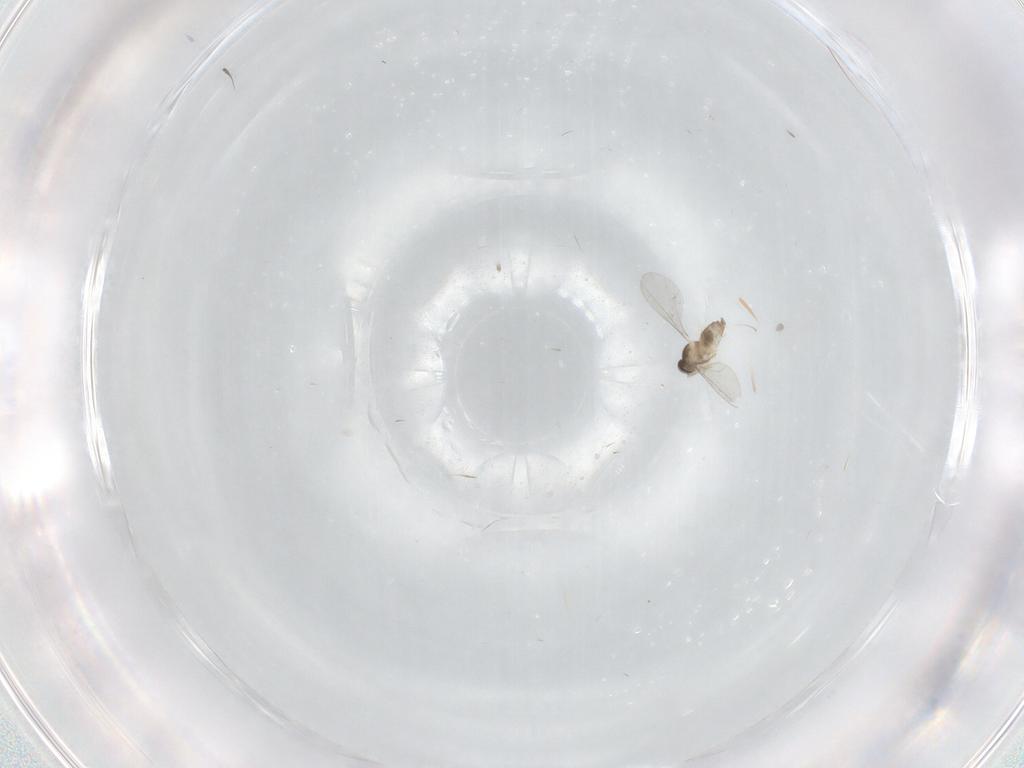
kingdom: Animalia
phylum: Arthropoda
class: Insecta
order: Diptera
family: Cecidomyiidae
